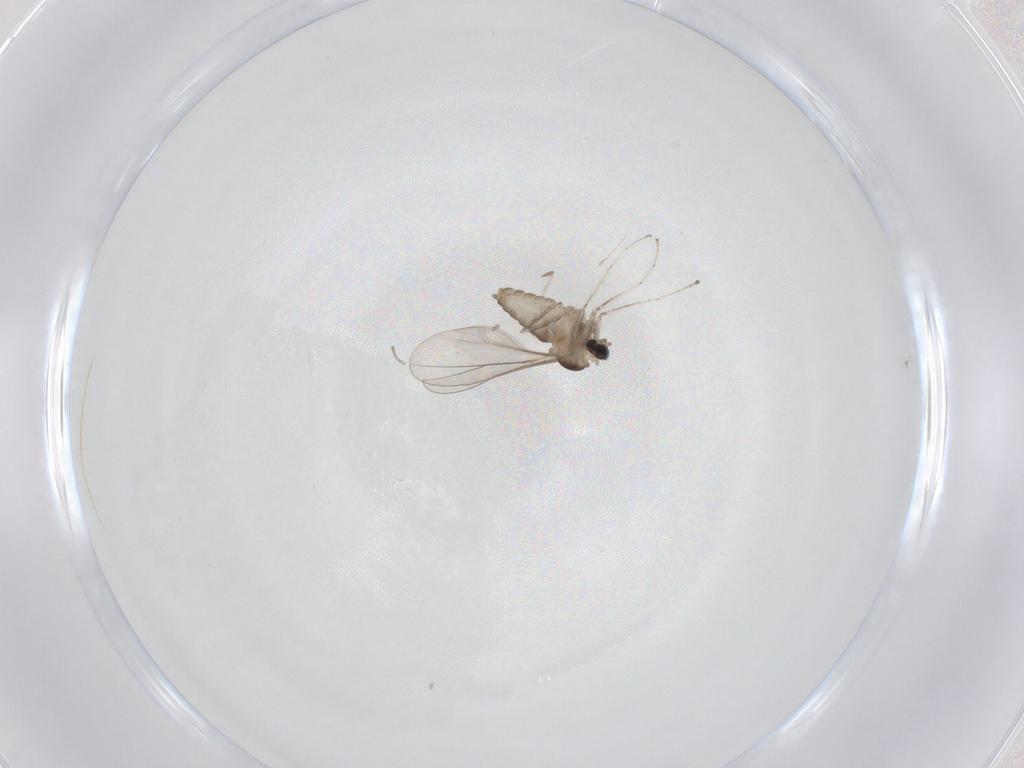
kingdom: Animalia
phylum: Arthropoda
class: Insecta
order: Diptera
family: Cecidomyiidae
